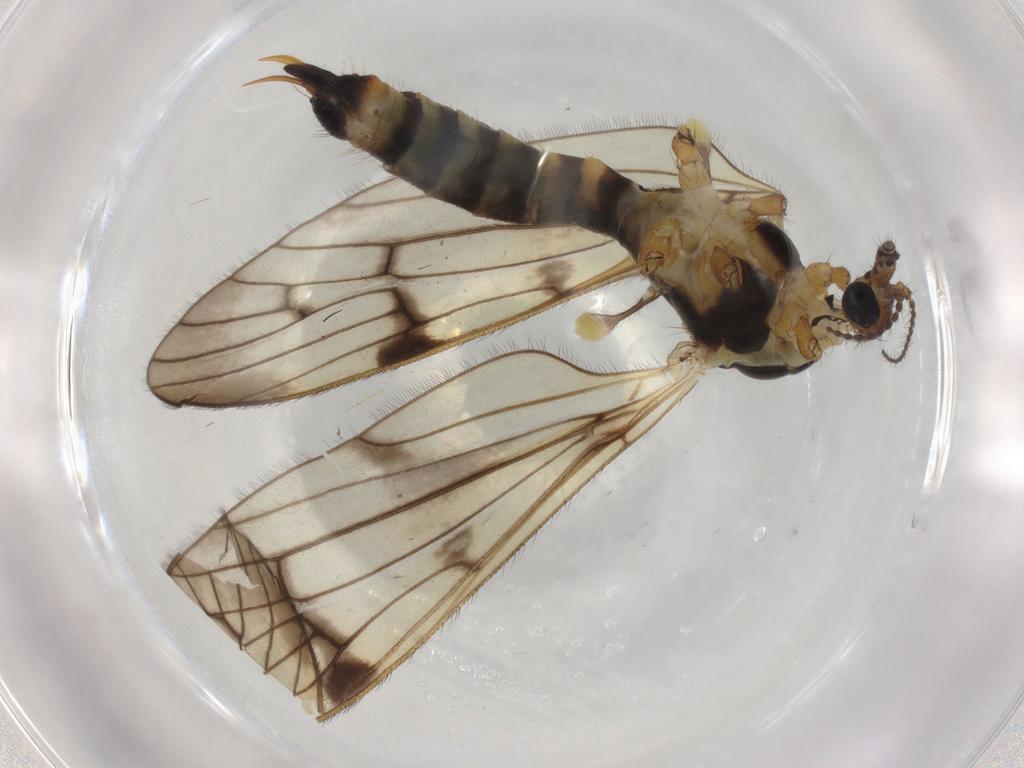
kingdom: Animalia
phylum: Arthropoda
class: Insecta
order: Diptera
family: Limoniidae
